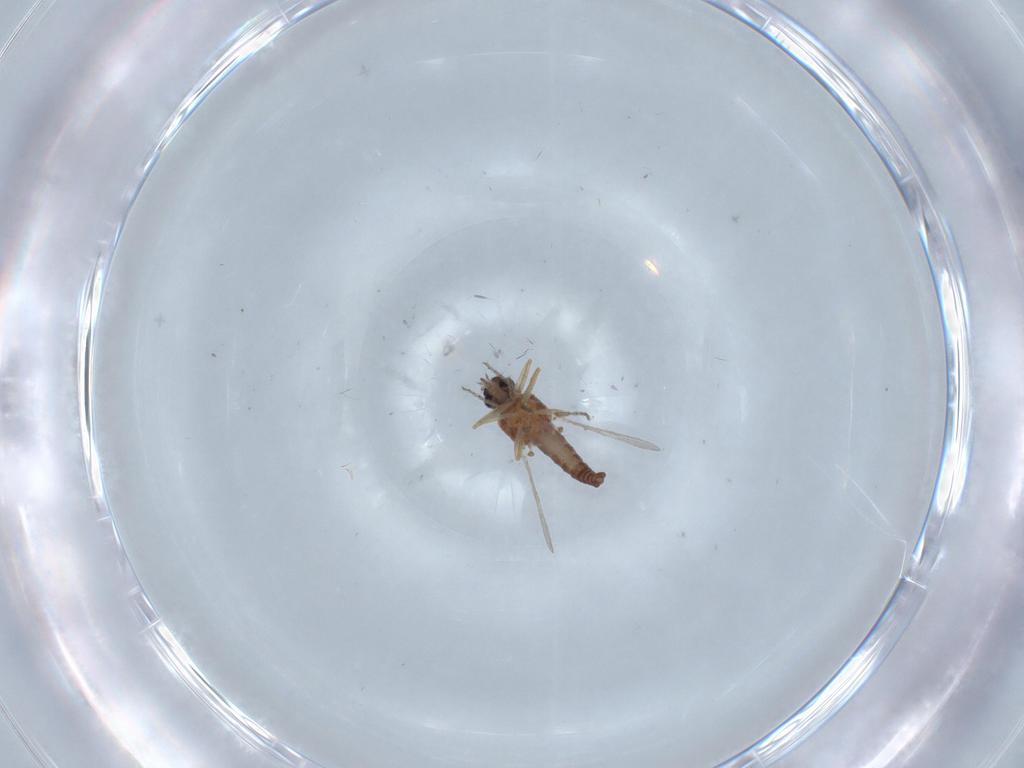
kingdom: Animalia
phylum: Arthropoda
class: Insecta
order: Diptera
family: Ceratopogonidae
